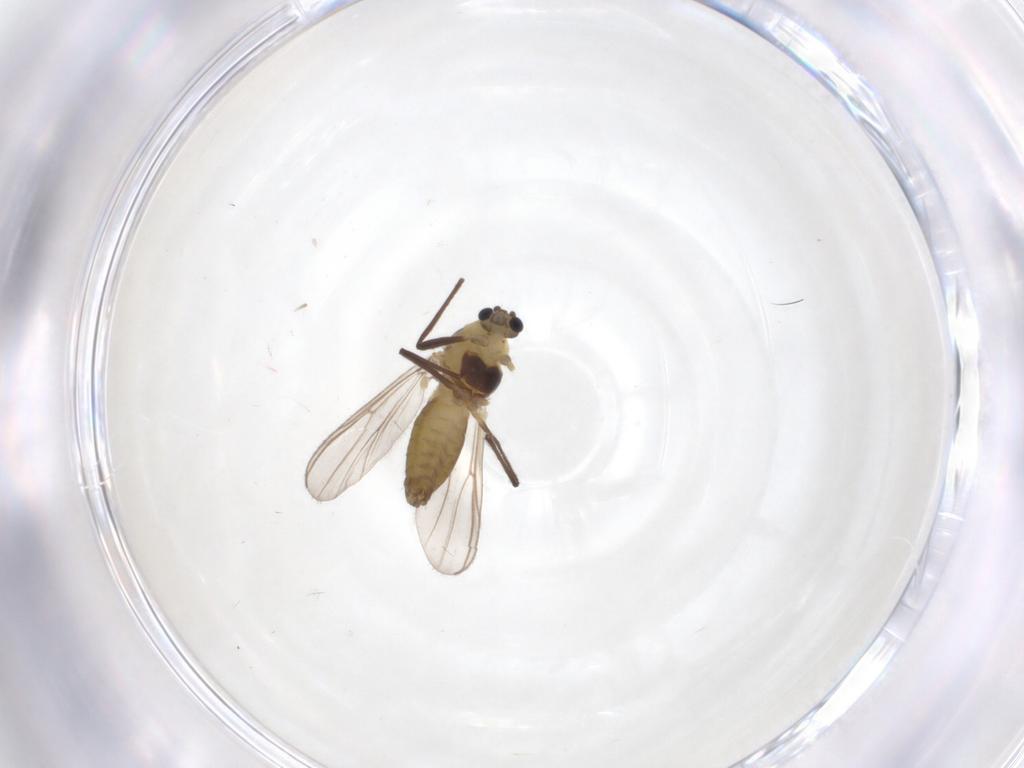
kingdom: Animalia
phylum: Arthropoda
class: Insecta
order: Diptera
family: Chironomidae
